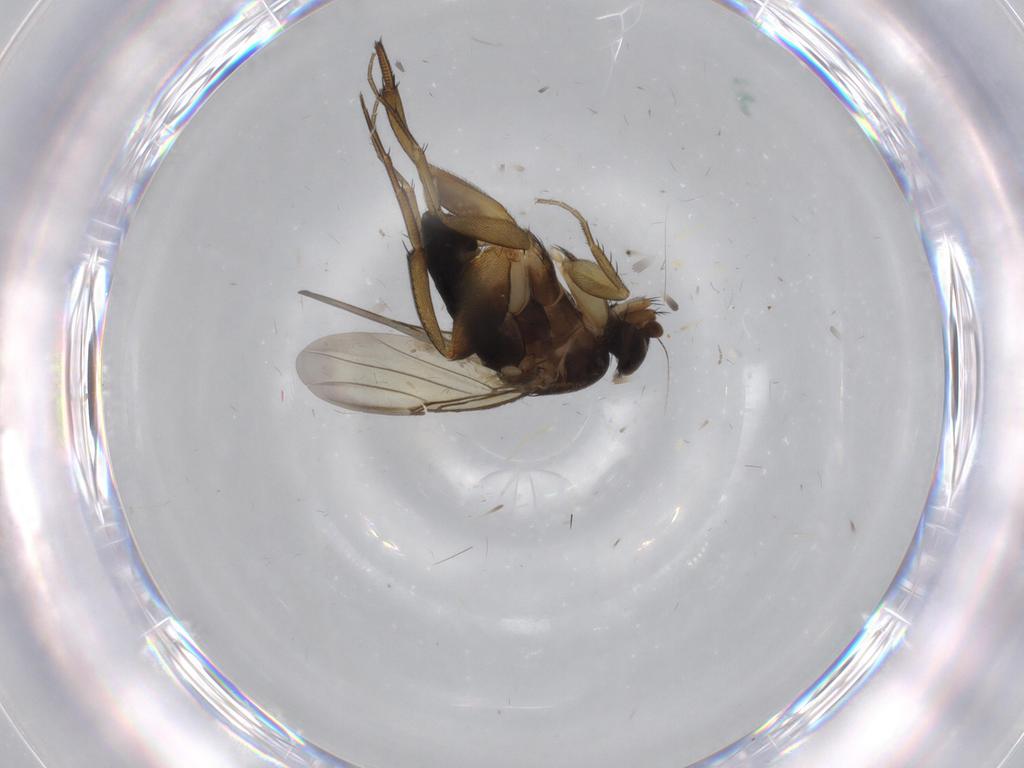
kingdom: Animalia
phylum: Arthropoda
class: Insecta
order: Diptera
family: Phoridae
